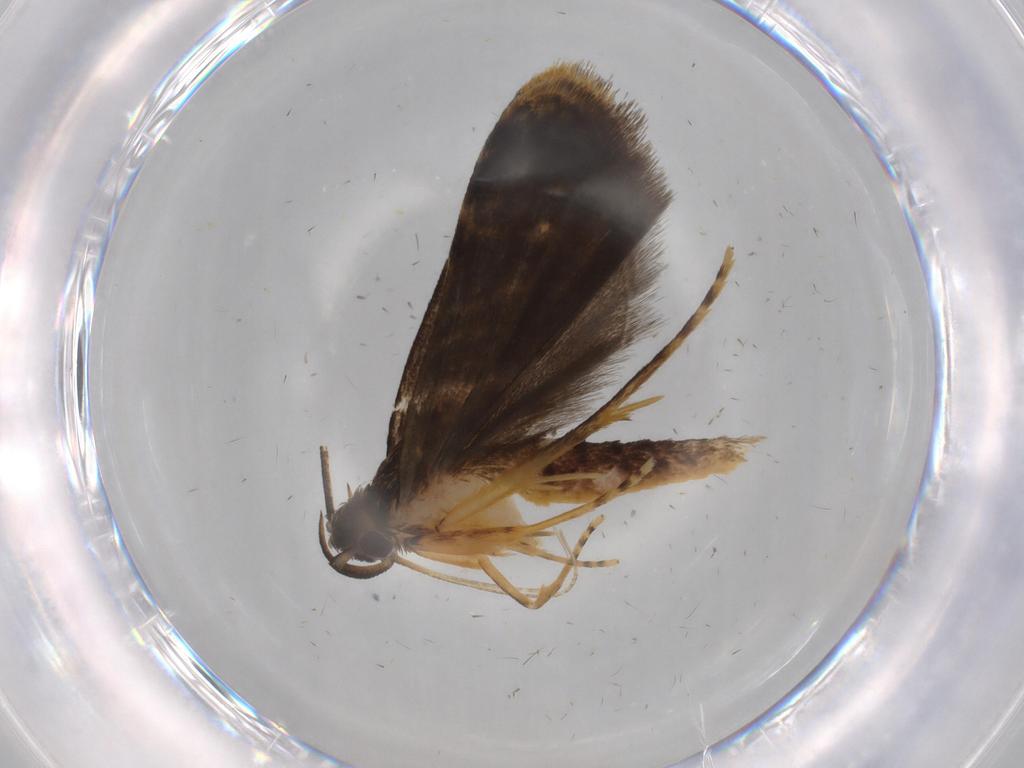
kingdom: Animalia
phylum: Arthropoda
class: Insecta
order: Lepidoptera
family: Cosmopterigidae
